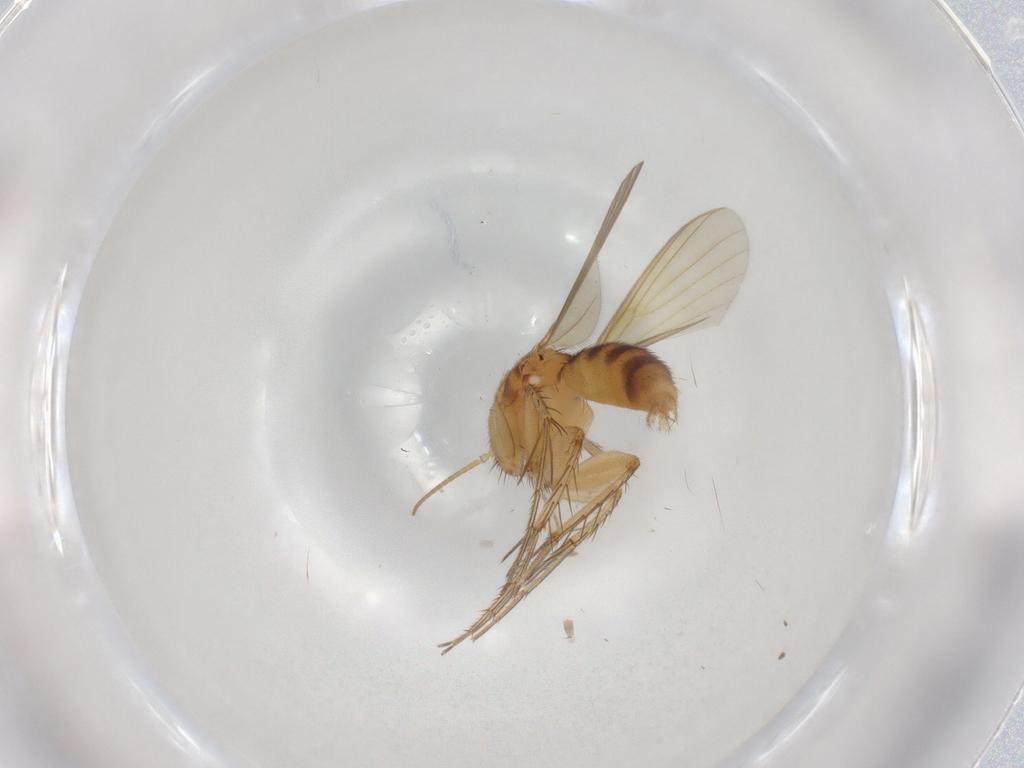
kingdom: Animalia
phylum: Arthropoda
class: Insecta
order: Diptera
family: Mycetophilidae
